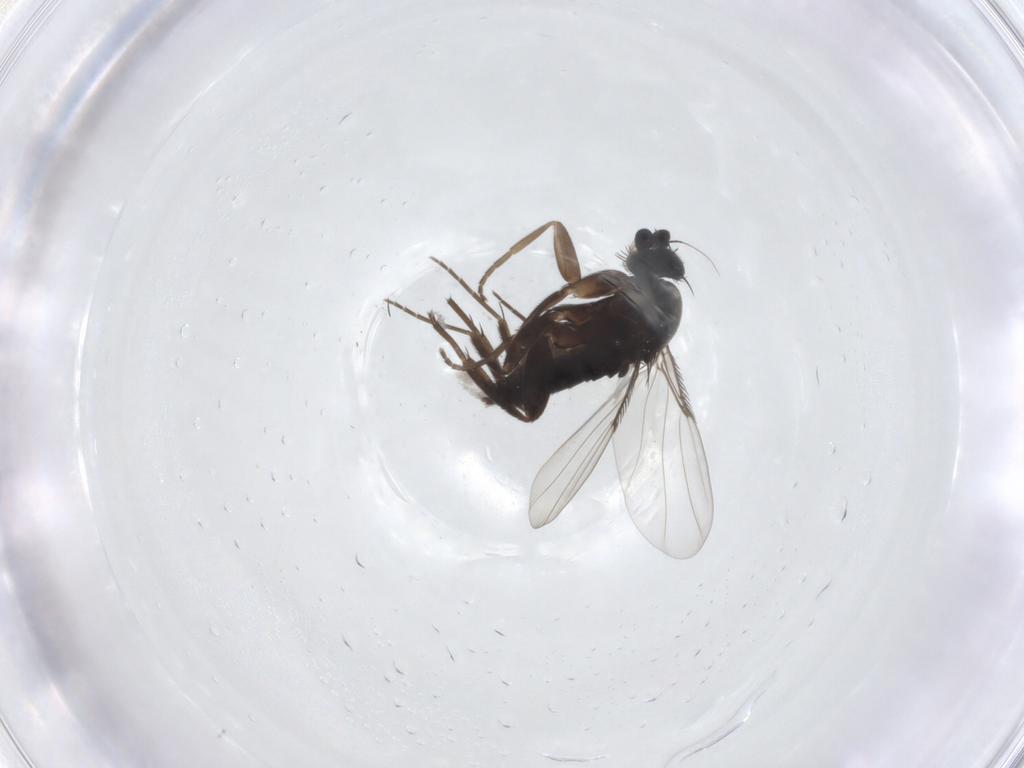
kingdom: Animalia
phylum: Arthropoda
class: Insecta
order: Diptera
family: Phoridae
